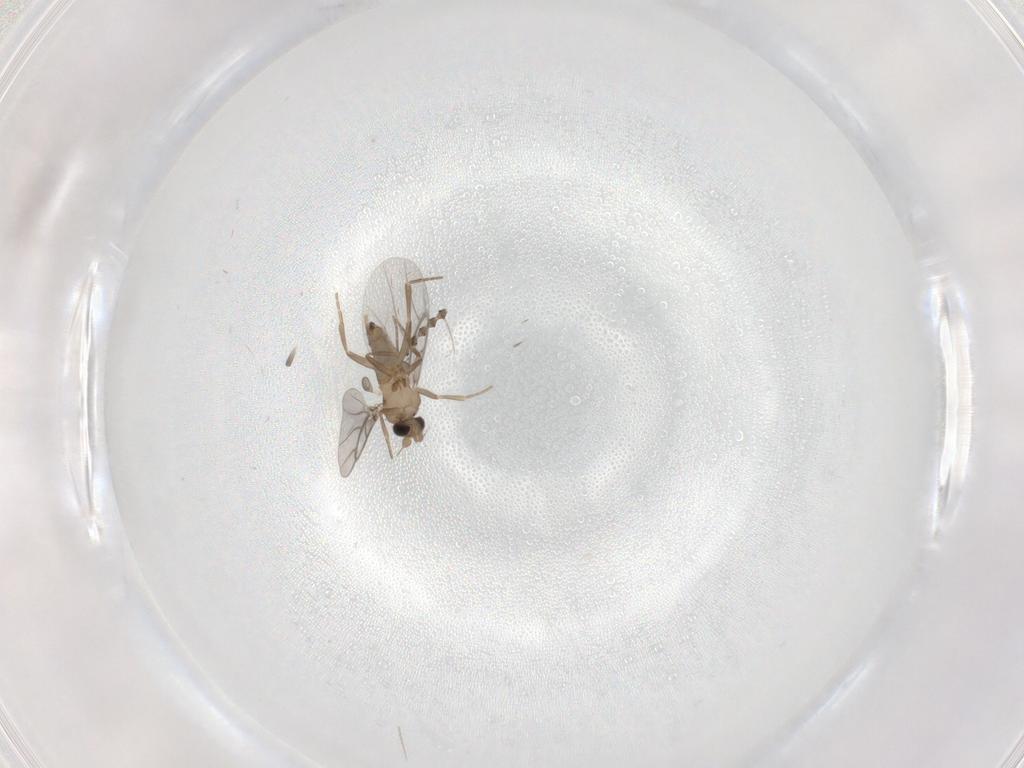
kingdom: Animalia
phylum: Arthropoda
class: Insecta
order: Diptera
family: Psychodidae
